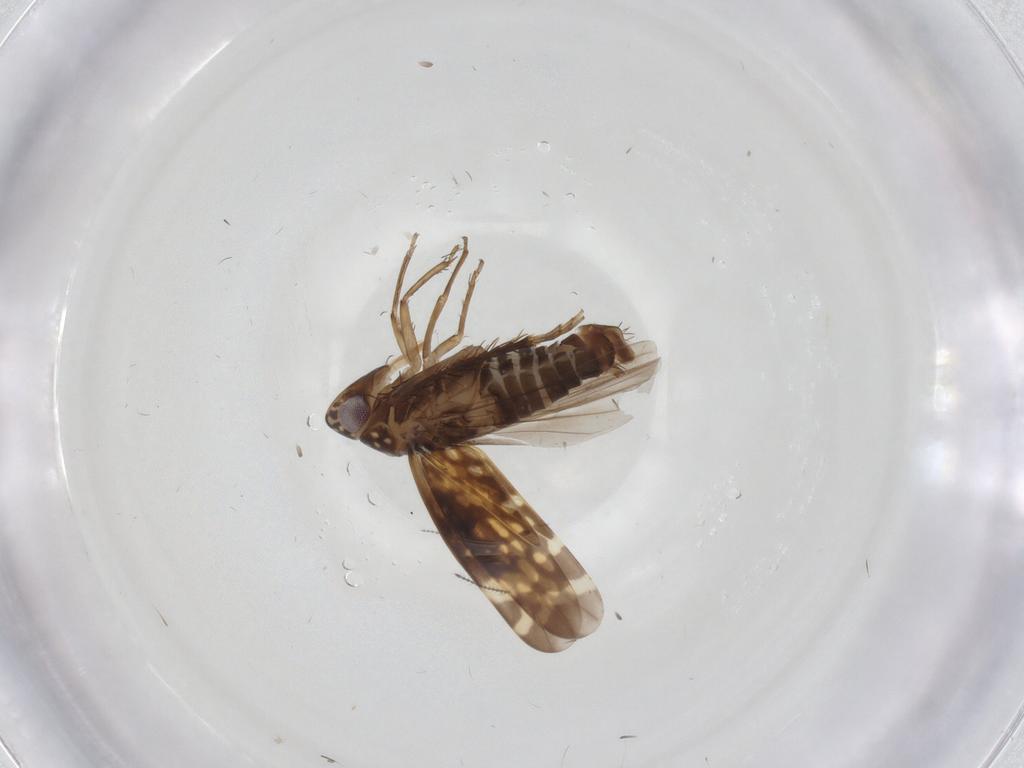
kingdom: Animalia
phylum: Arthropoda
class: Insecta
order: Hemiptera
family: Cicadellidae
